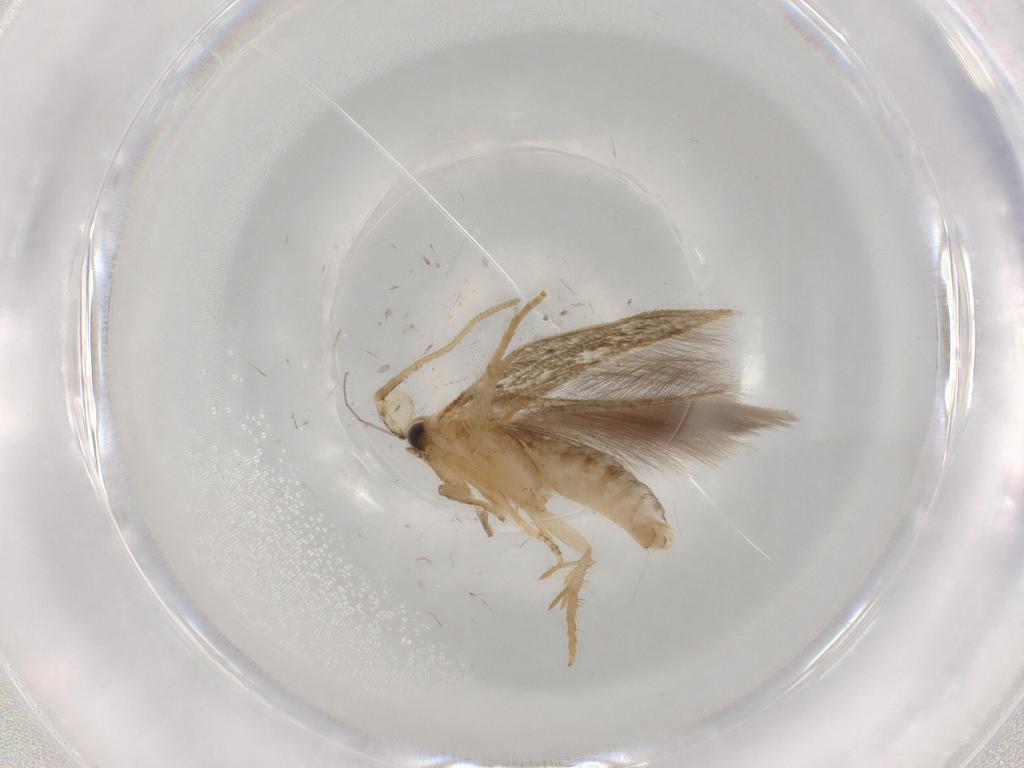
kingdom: Animalia
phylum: Arthropoda
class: Insecta
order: Lepidoptera
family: Opostegidae
